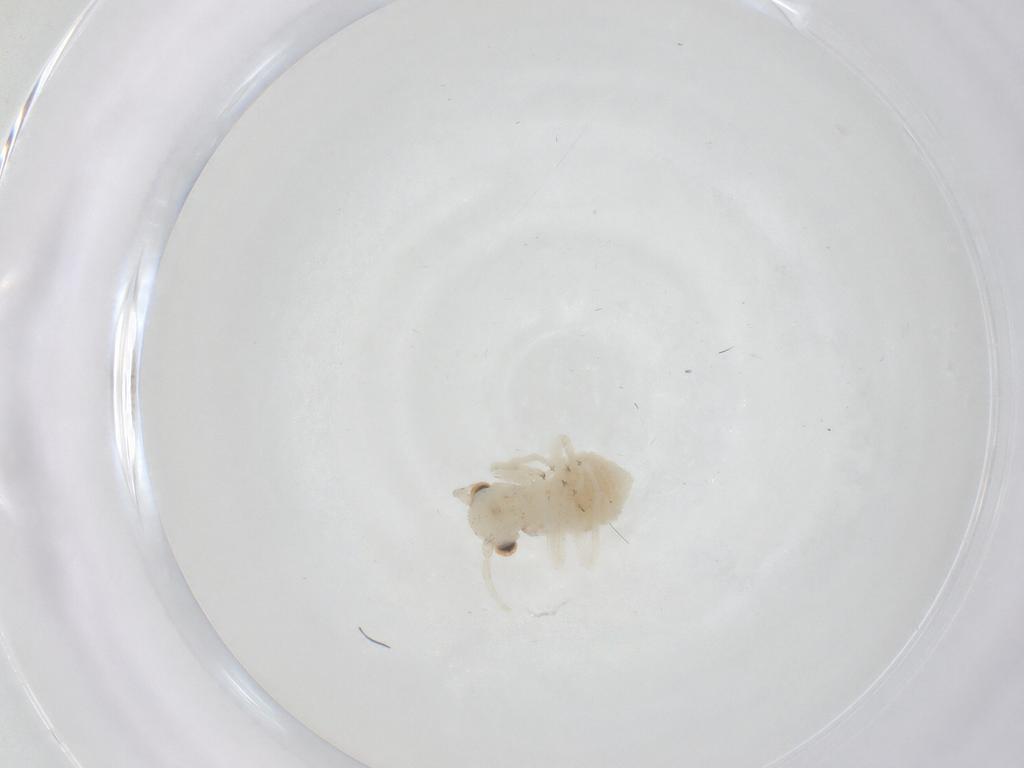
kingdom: Animalia
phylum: Arthropoda
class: Insecta
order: Psocodea
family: Amphipsocidae
